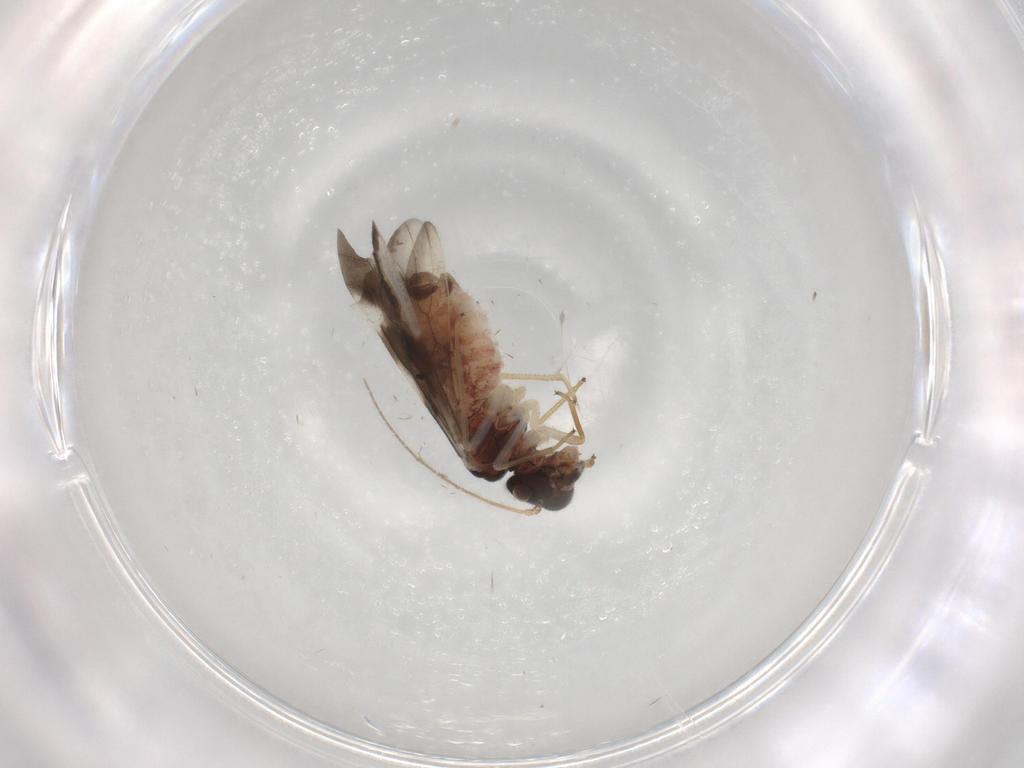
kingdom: Animalia
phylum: Arthropoda
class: Insecta
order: Psocodea
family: Caeciliusidae
